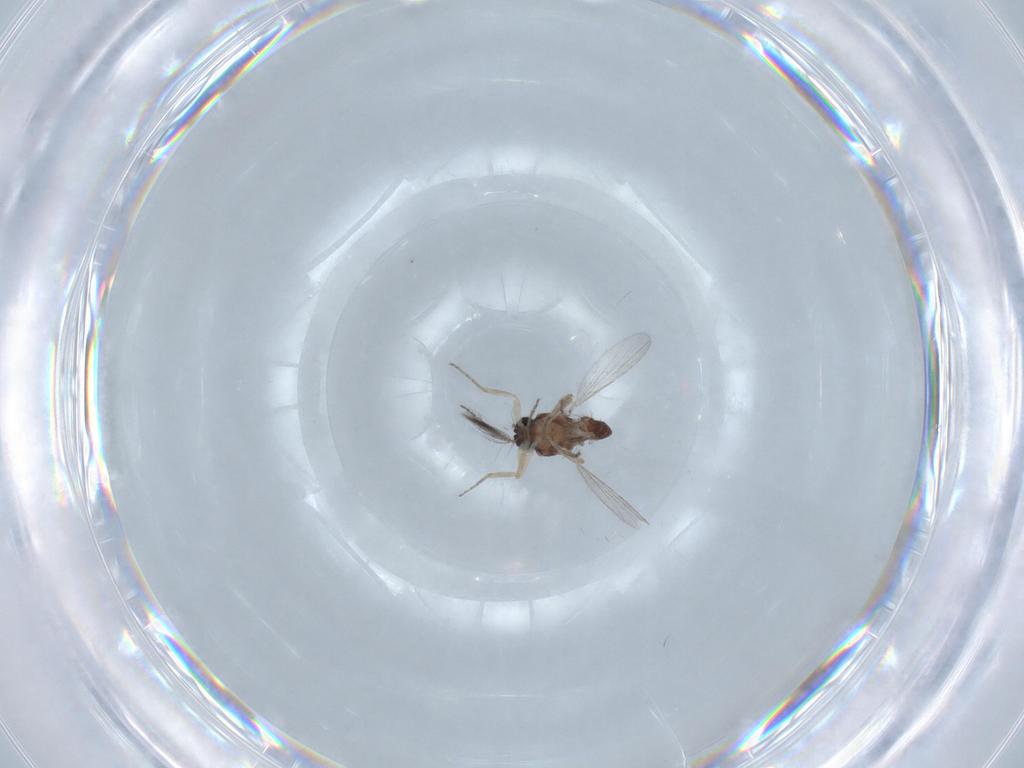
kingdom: Animalia
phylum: Arthropoda
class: Insecta
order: Diptera
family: Ceratopogonidae
